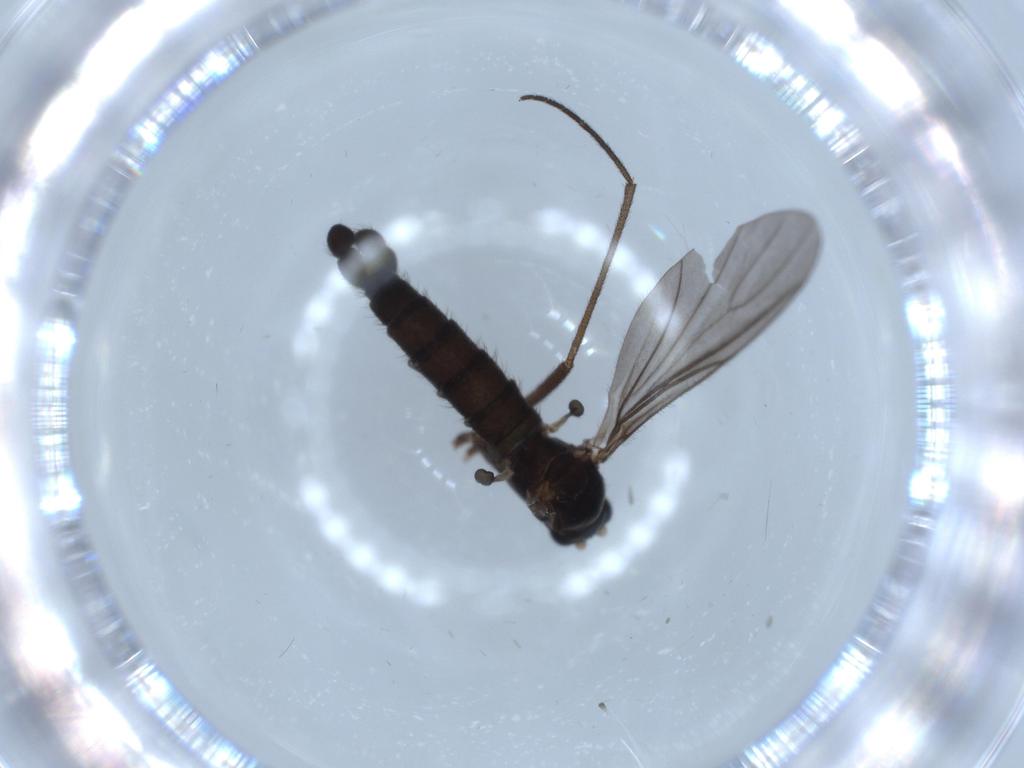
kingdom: Animalia
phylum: Arthropoda
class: Insecta
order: Diptera
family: Sciaridae
